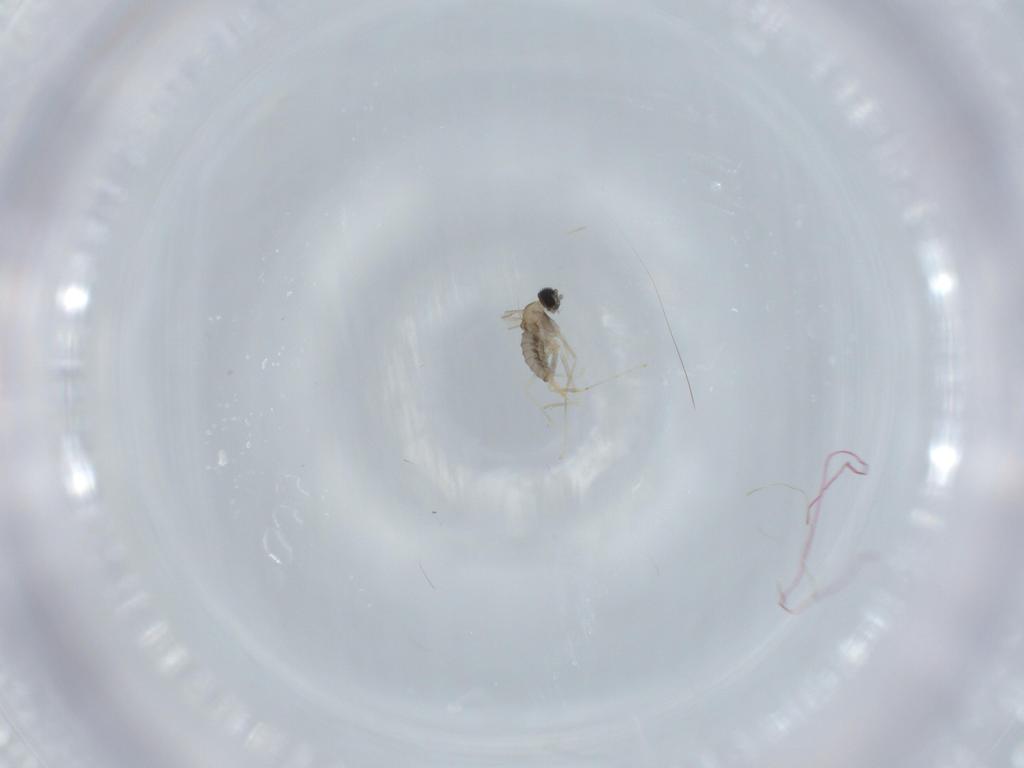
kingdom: Animalia
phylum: Arthropoda
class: Insecta
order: Diptera
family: Cecidomyiidae
